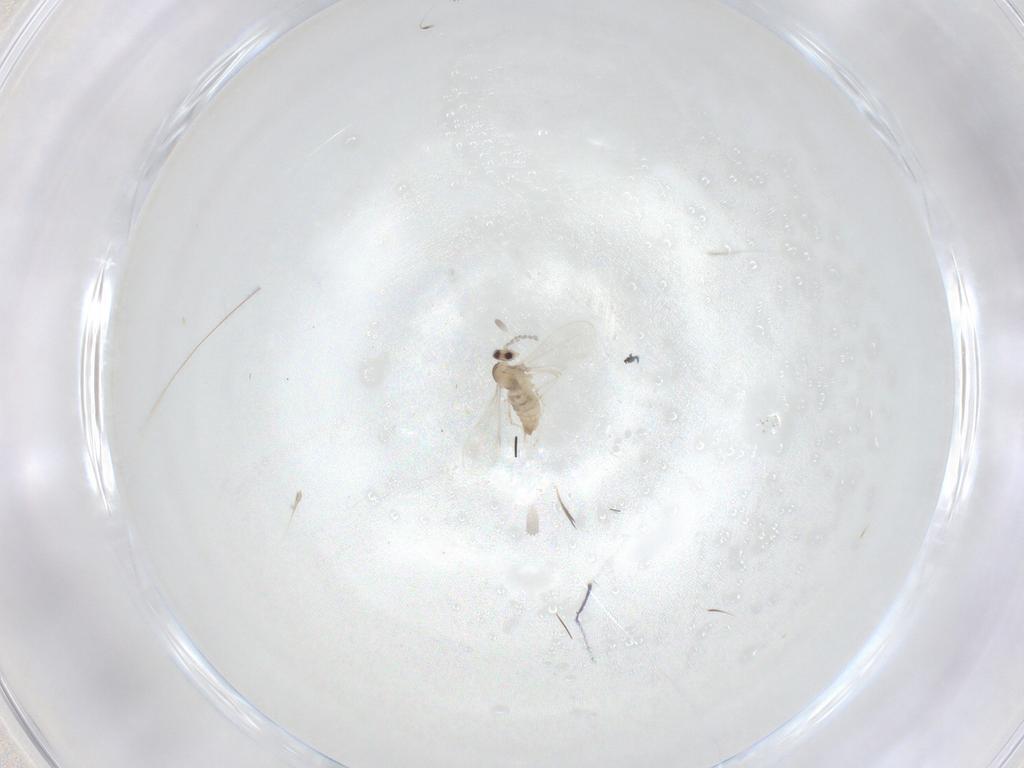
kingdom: Animalia
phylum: Arthropoda
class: Insecta
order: Diptera
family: Cecidomyiidae
